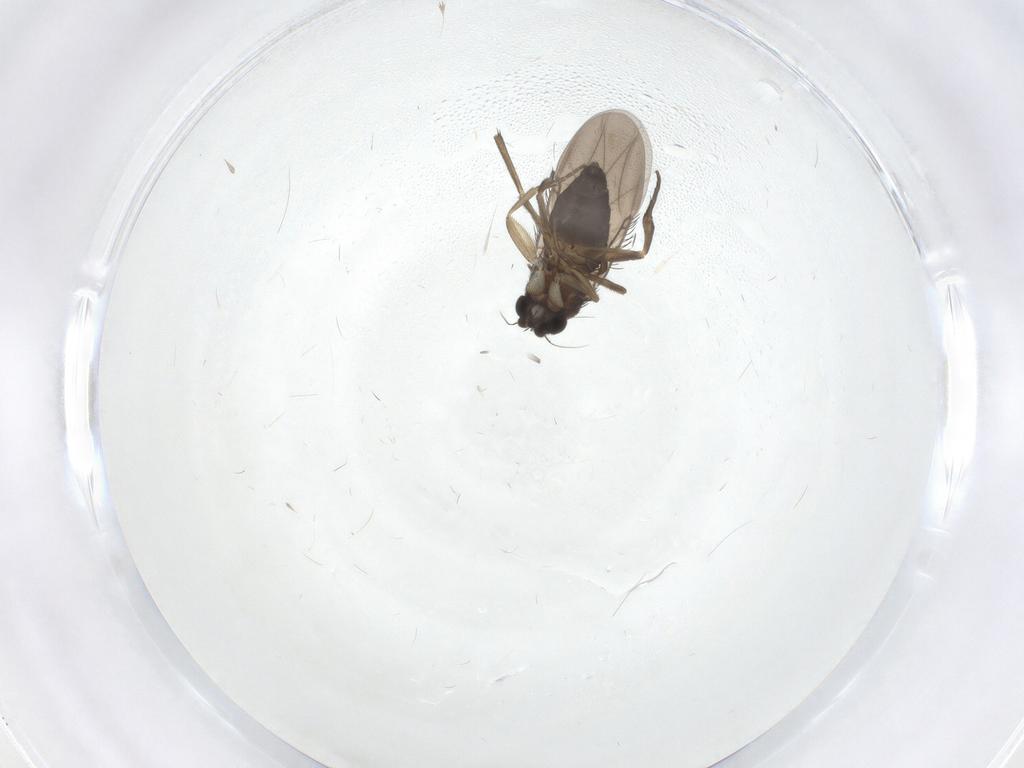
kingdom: Animalia
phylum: Arthropoda
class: Insecta
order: Diptera
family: Phoridae
